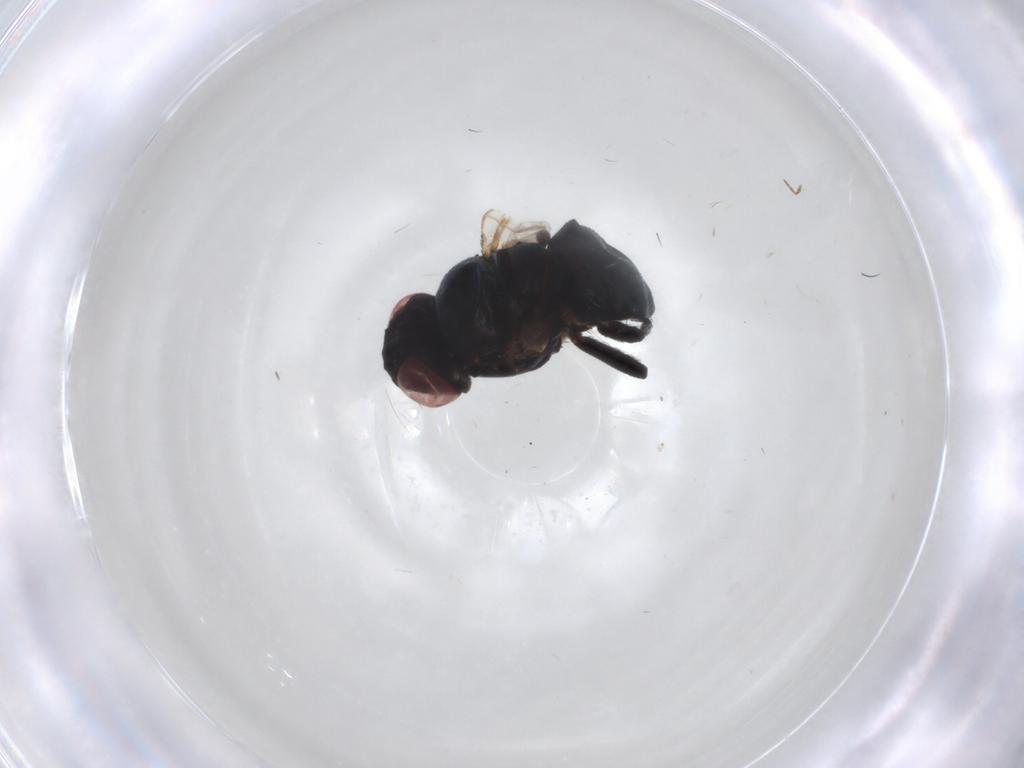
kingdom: Animalia
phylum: Arthropoda
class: Insecta
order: Diptera
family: Agromyzidae
